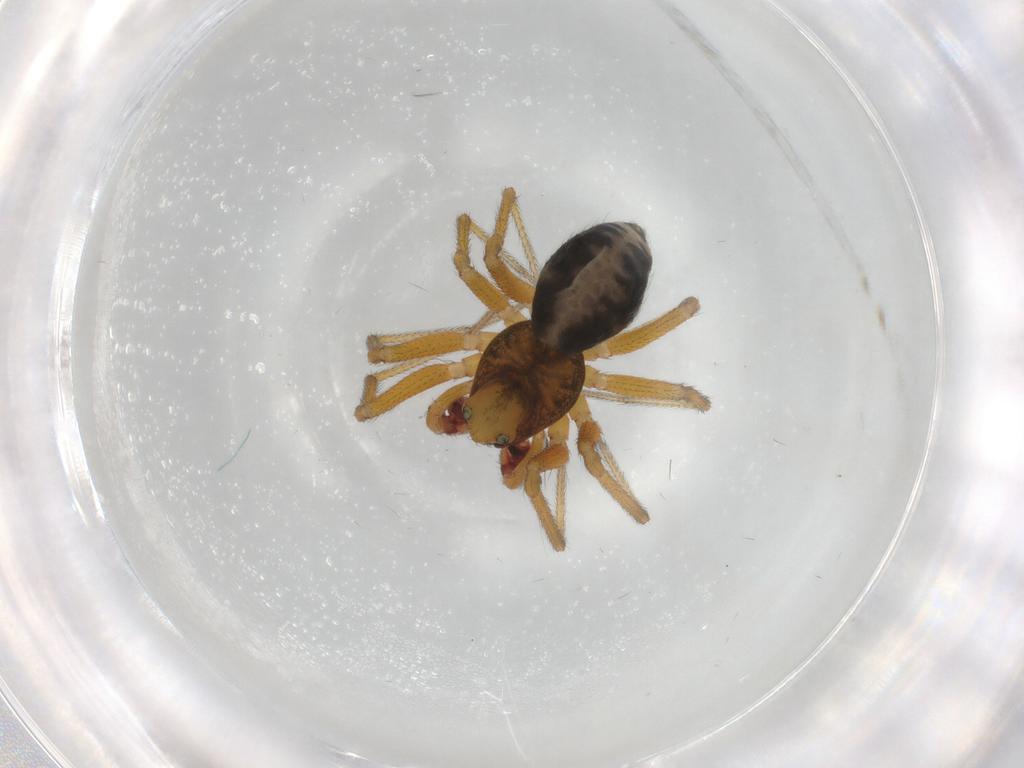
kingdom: Animalia
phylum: Arthropoda
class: Arachnida
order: Araneae
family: Linyphiidae
